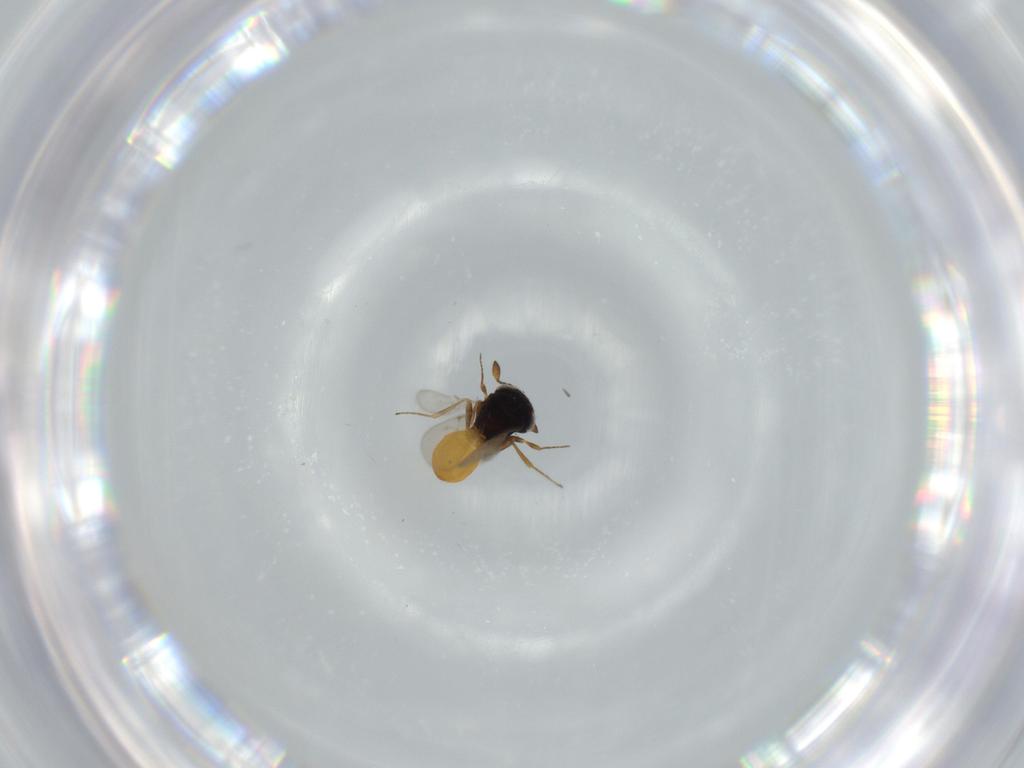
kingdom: Animalia
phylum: Arthropoda
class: Insecta
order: Hymenoptera
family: Scelionidae
